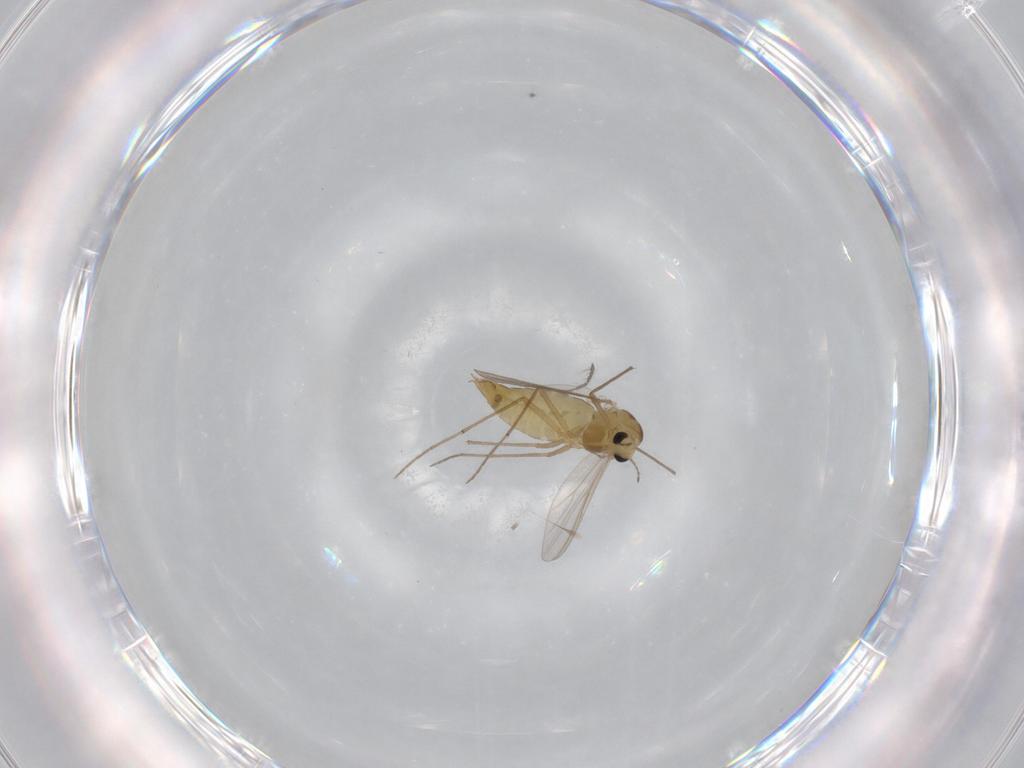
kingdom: Animalia
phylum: Arthropoda
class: Insecta
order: Diptera
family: Chironomidae
